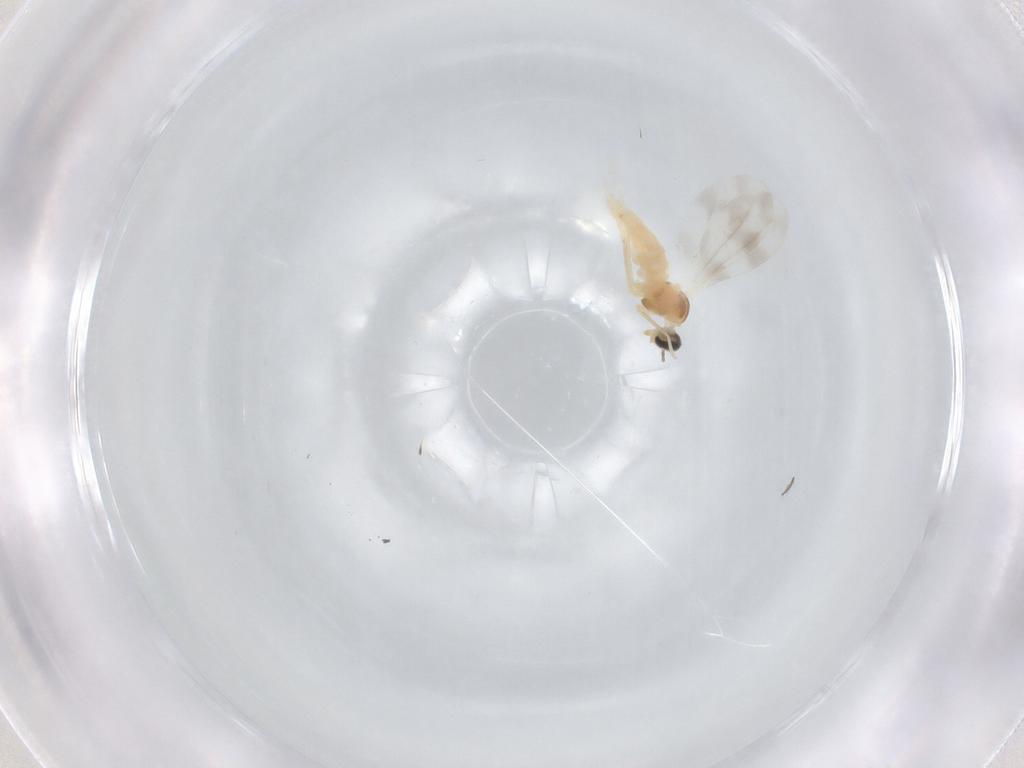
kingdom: Animalia
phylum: Arthropoda
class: Insecta
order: Diptera
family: Cecidomyiidae
